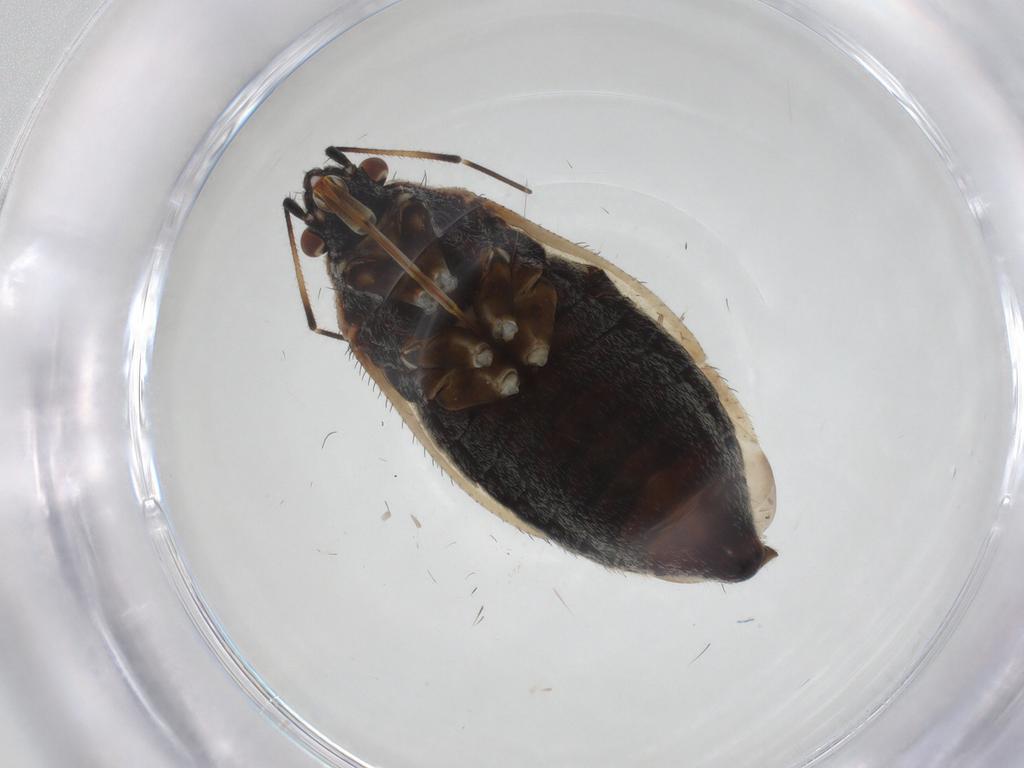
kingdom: Animalia
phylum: Arthropoda
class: Insecta
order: Hemiptera
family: Miridae
